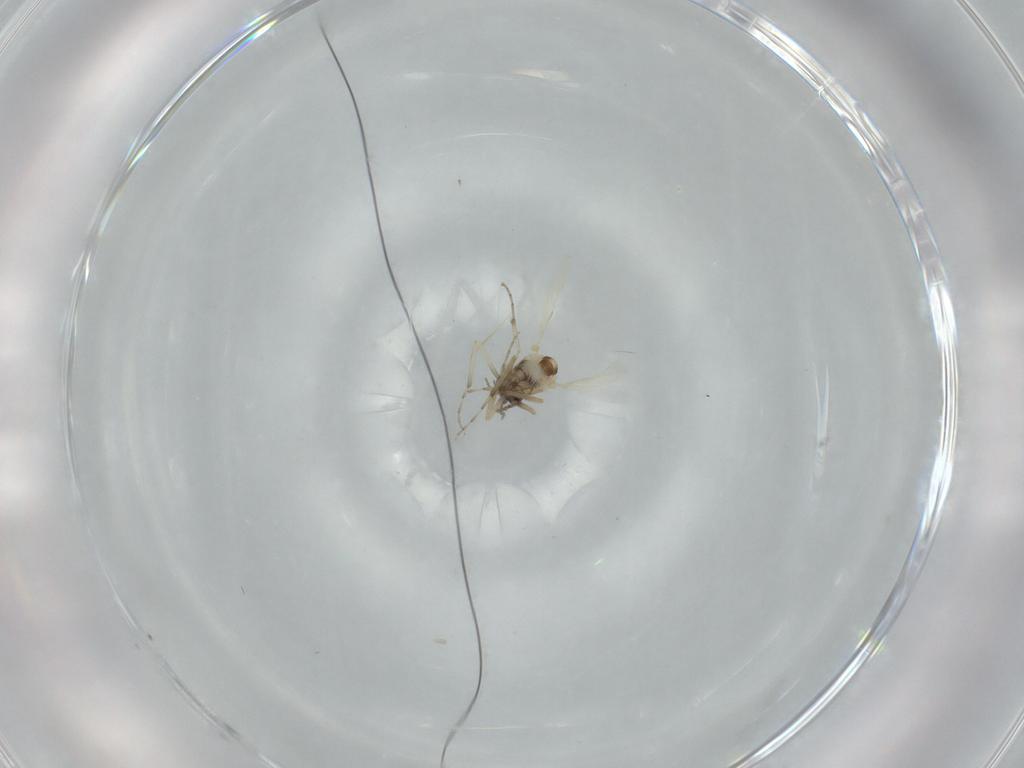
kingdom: Animalia
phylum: Arthropoda
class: Insecta
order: Diptera
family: Ceratopogonidae
